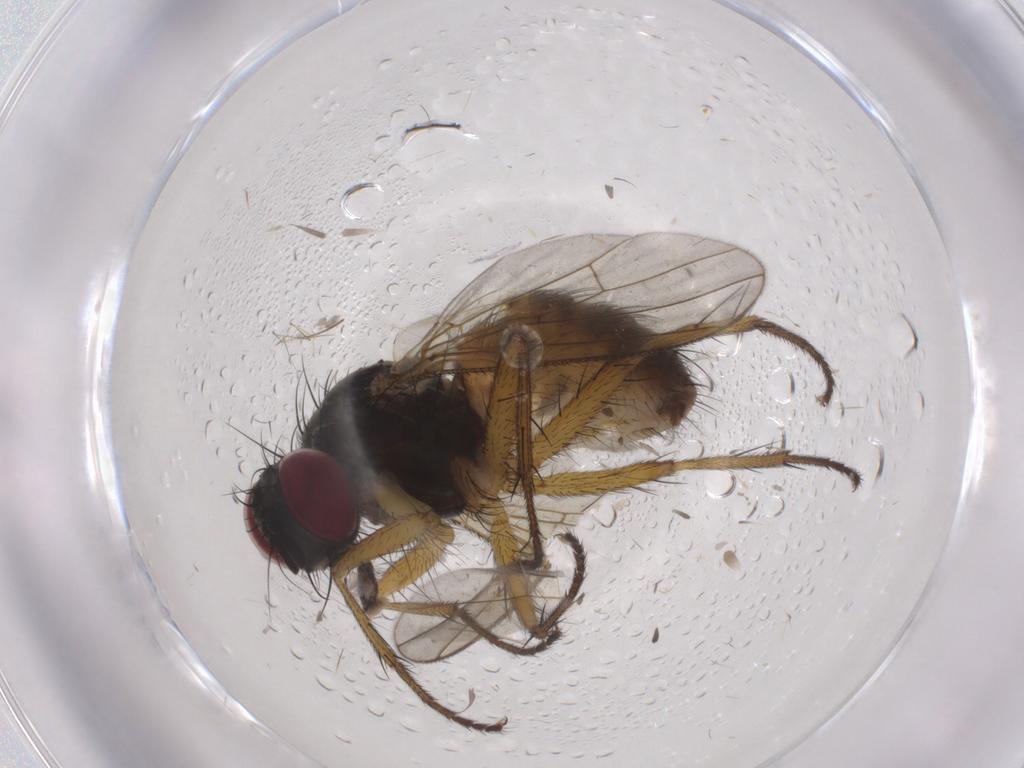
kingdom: Animalia
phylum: Arthropoda
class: Insecta
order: Diptera
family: Muscidae
